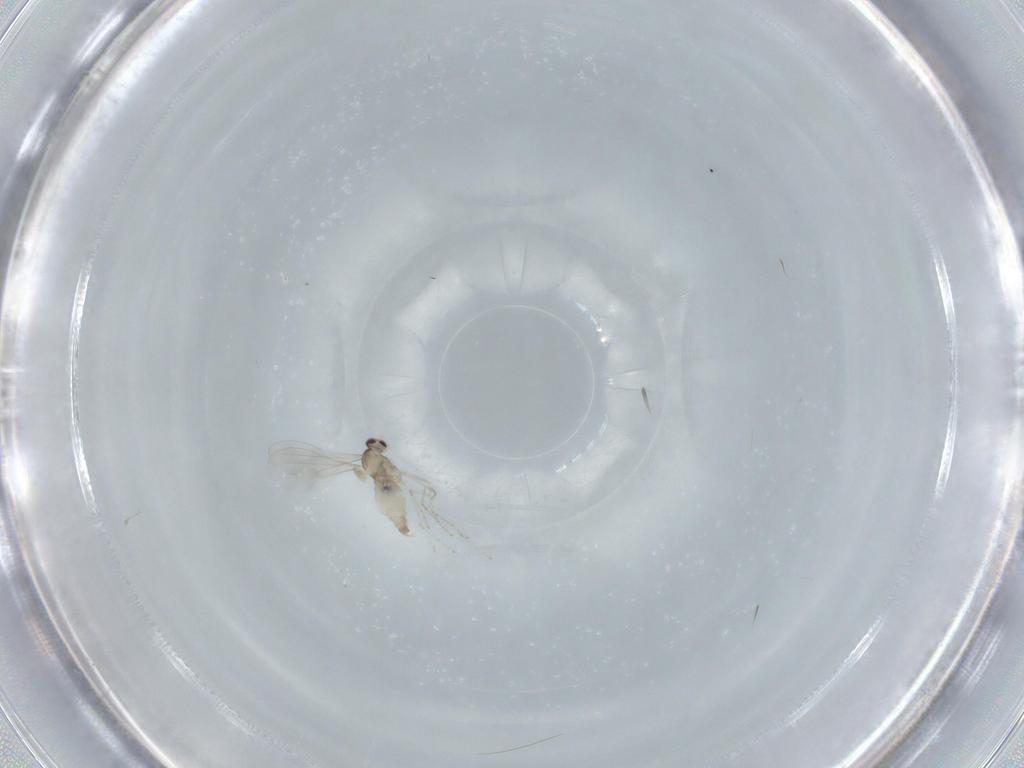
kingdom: Animalia
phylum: Arthropoda
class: Insecta
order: Diptera
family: Cecidomyiidae
